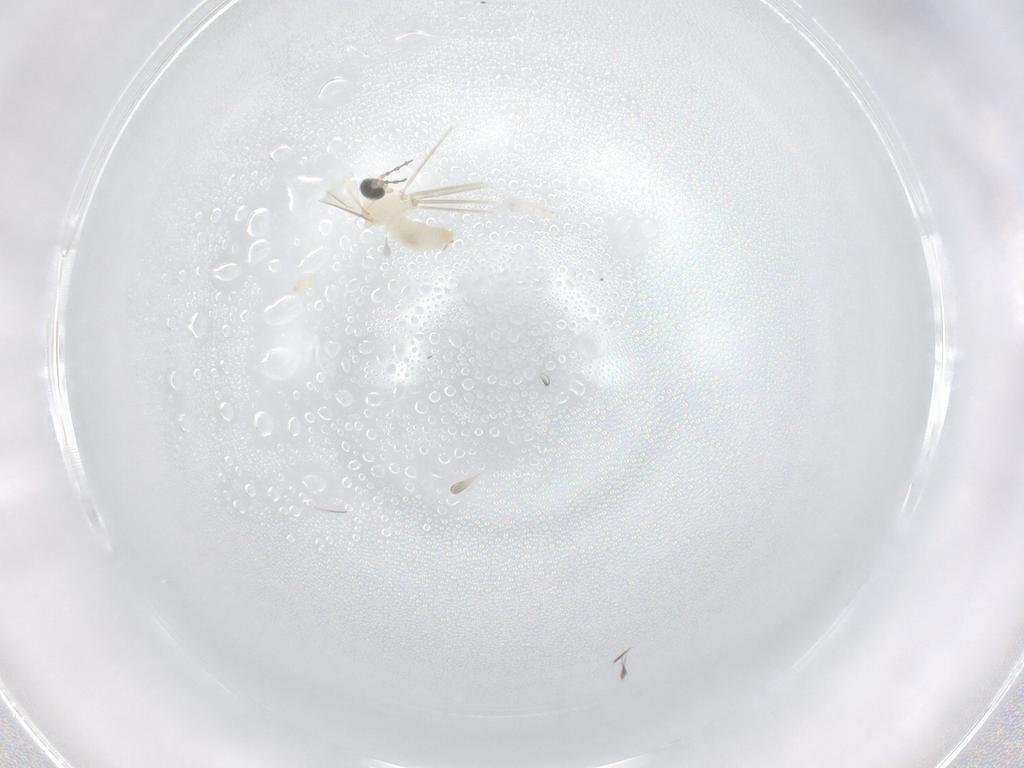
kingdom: Animalia
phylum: Arthropoda
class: Insecta
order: Diptera
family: Cecidomyiidae
